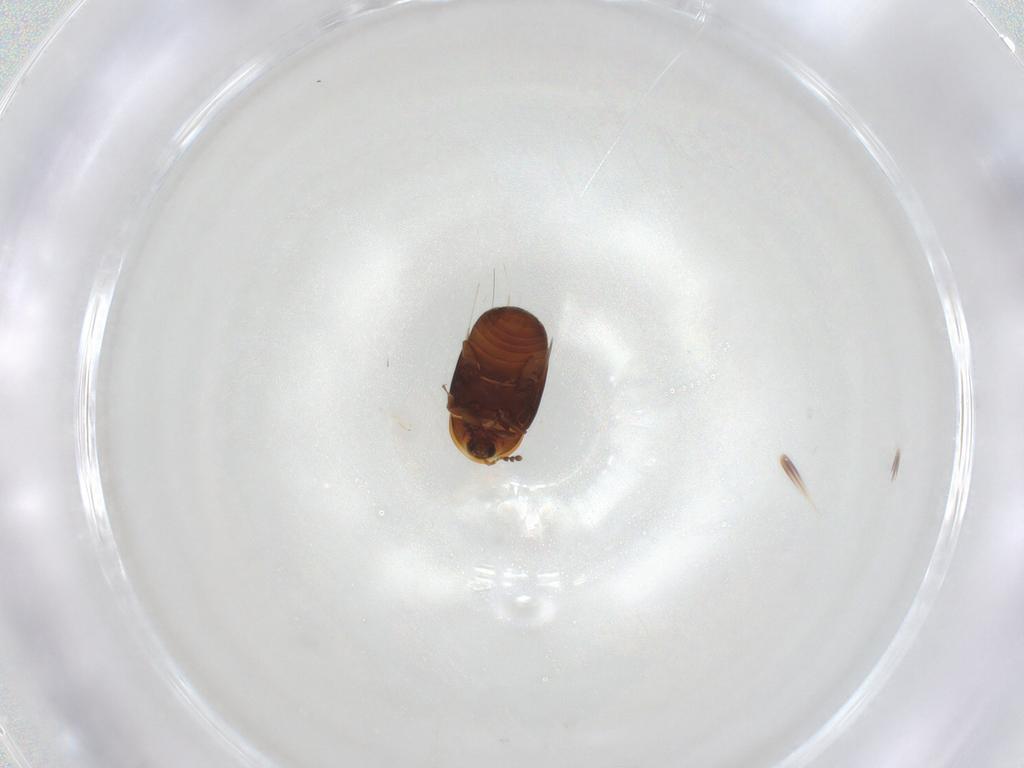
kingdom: Animalia
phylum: Arthropoda
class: Insecta
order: Coleoptera
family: Corylophidae
